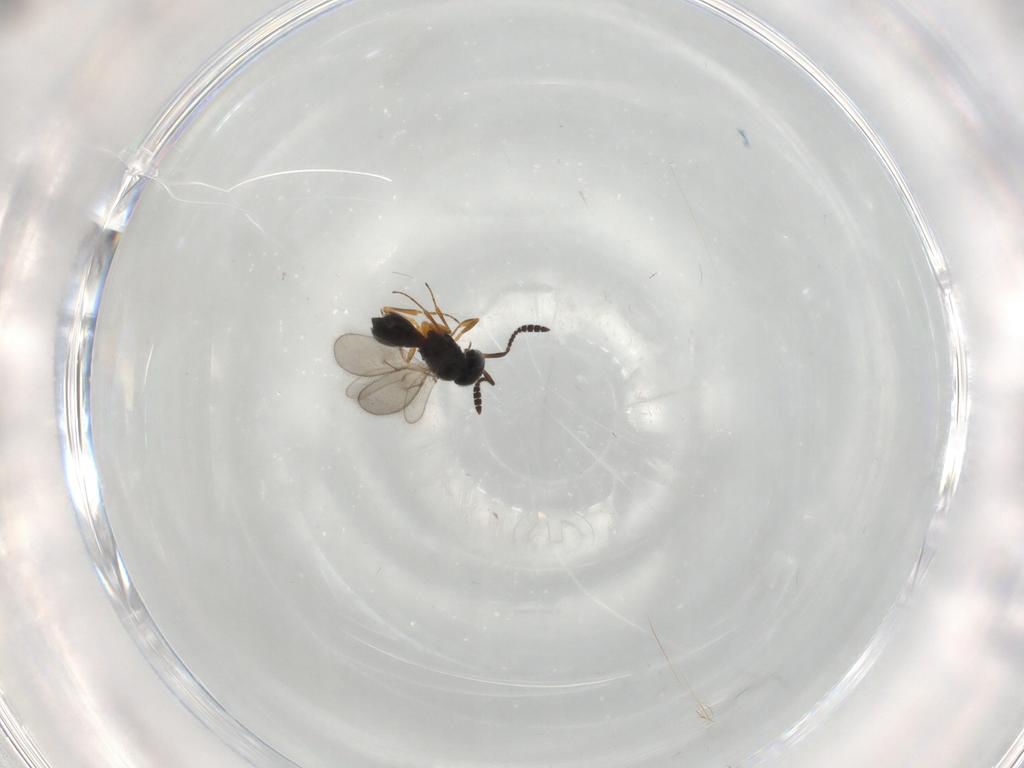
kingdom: Animalia
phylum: Arthropoda
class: Insecta
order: Hymenoptera
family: Scelionidae
